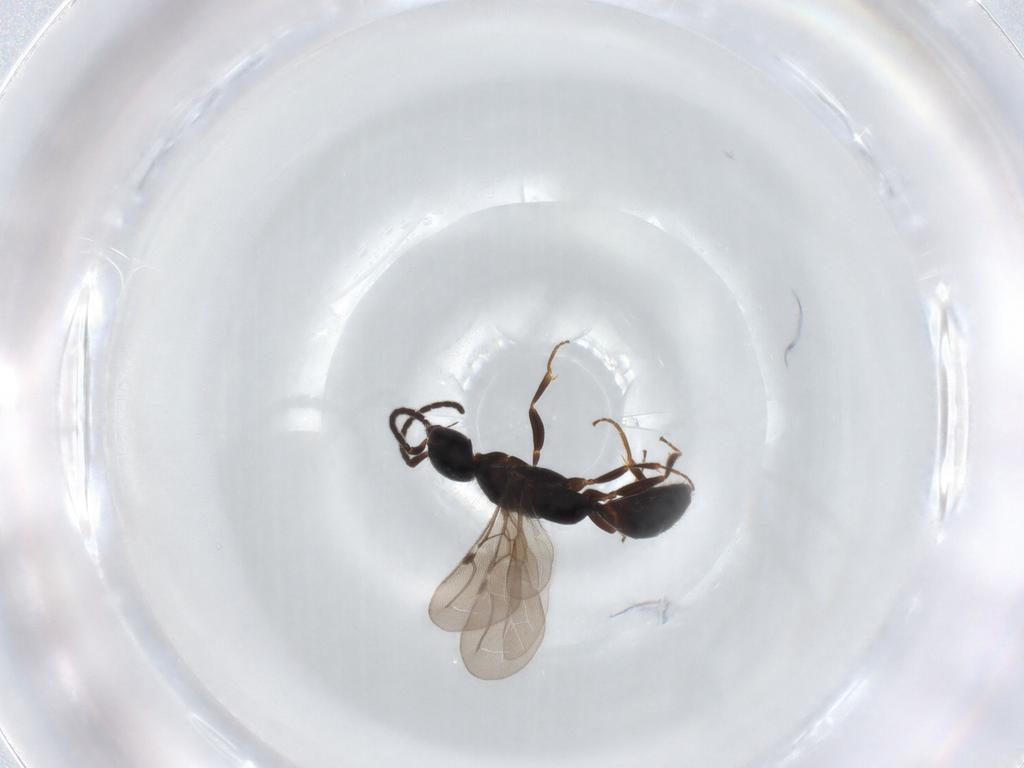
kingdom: Animalia
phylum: Arthropoda
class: Insecta
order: Hymenoptera
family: Bethylidae
